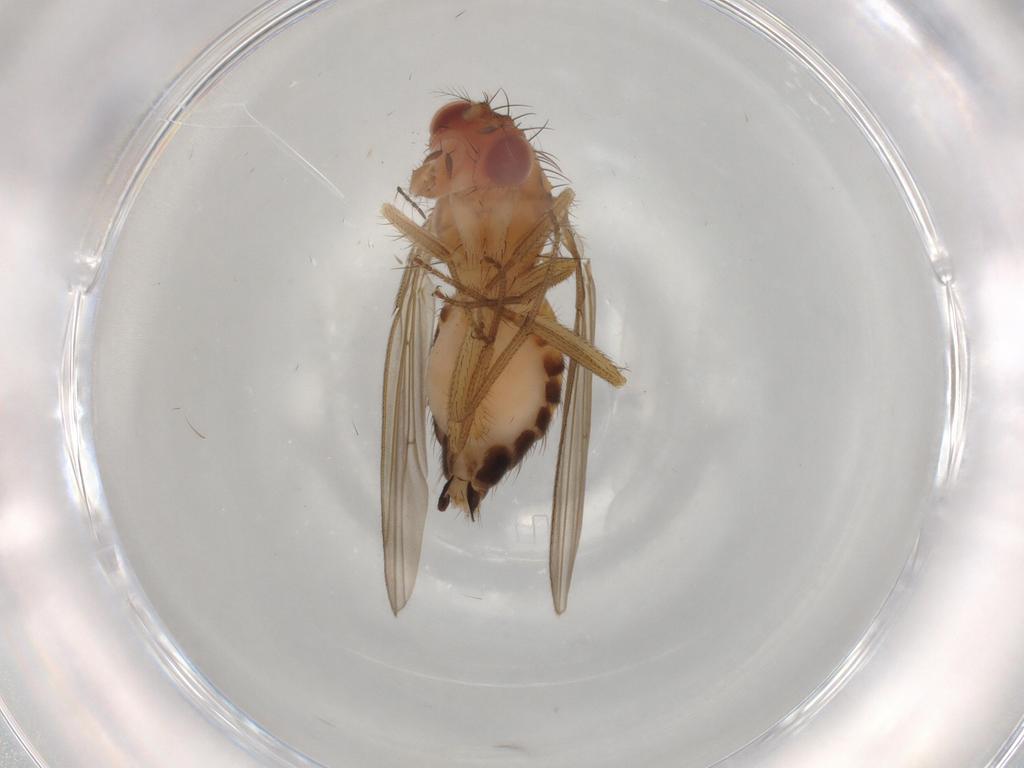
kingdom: Animalia
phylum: Arthropoda
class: Insecta
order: Diptera
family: Drosophilidae
